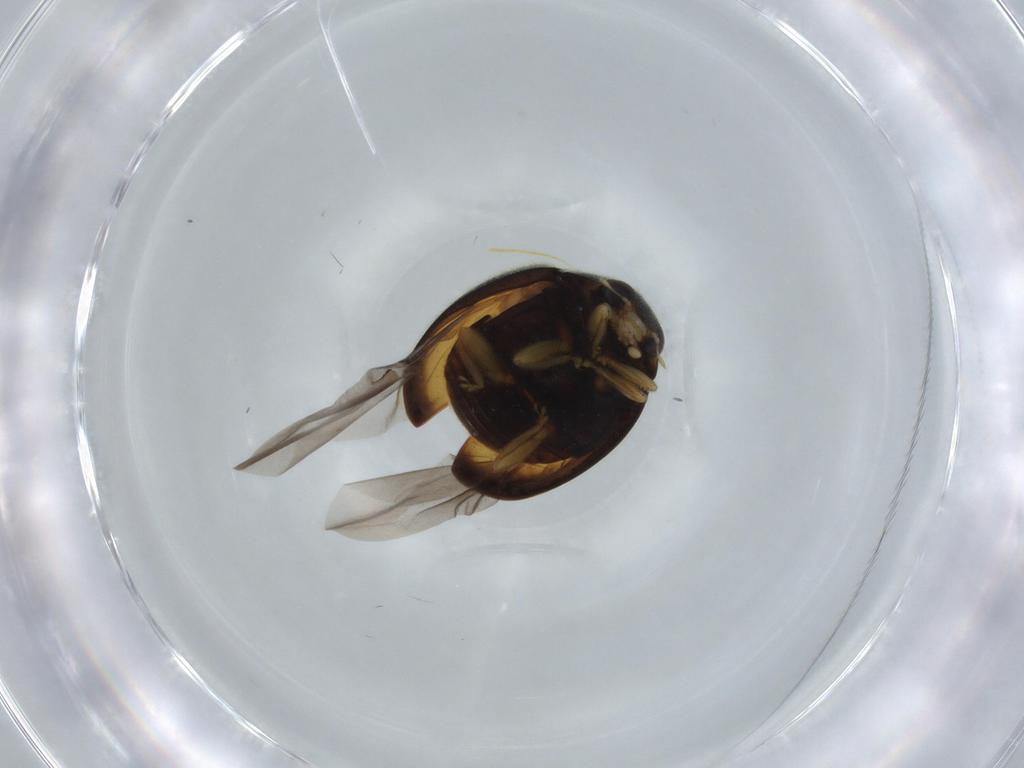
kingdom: Animalia
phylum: Arthropoda
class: Insecta
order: Coleoptera
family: Coccinellidae
